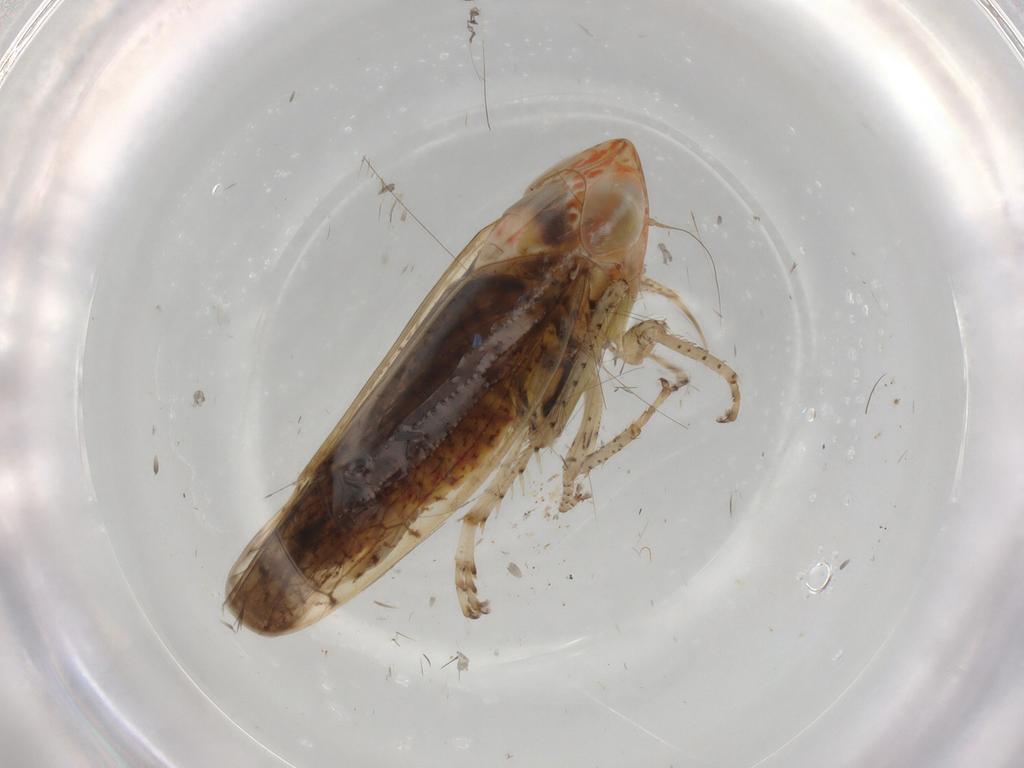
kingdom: Animalia
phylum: Arthropoda
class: Insecta
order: Hemiptera
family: Cicadellidae
